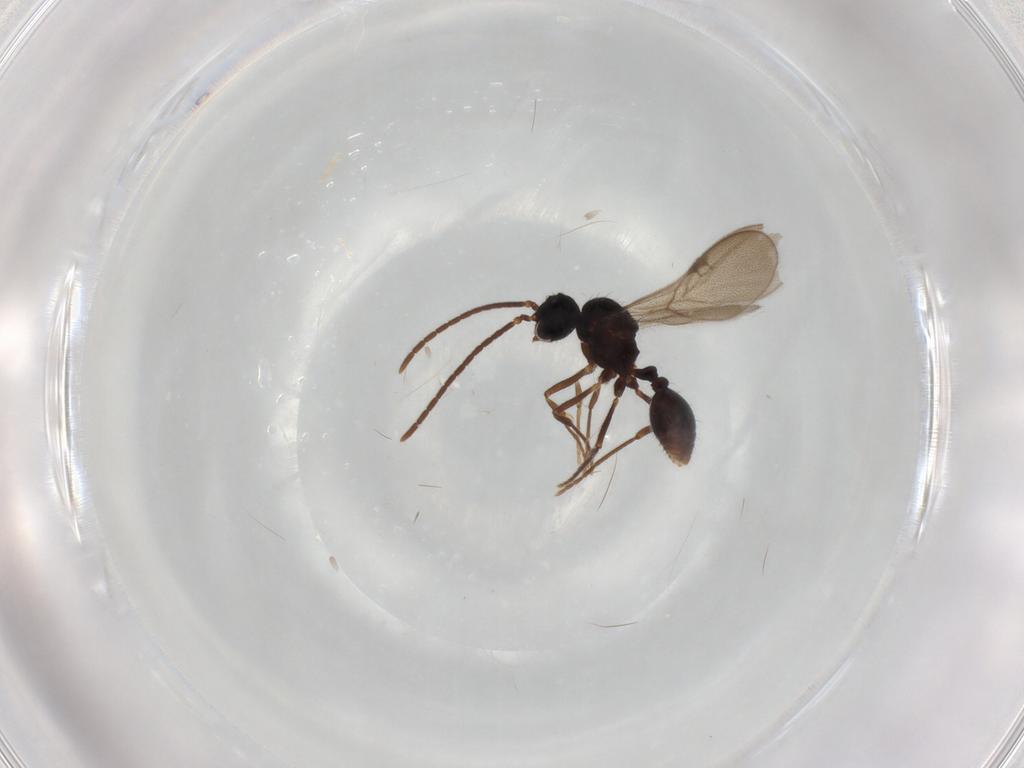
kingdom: Animalia
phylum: Arthropoda
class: Insecta
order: Hymenoptera
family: Formicidae
